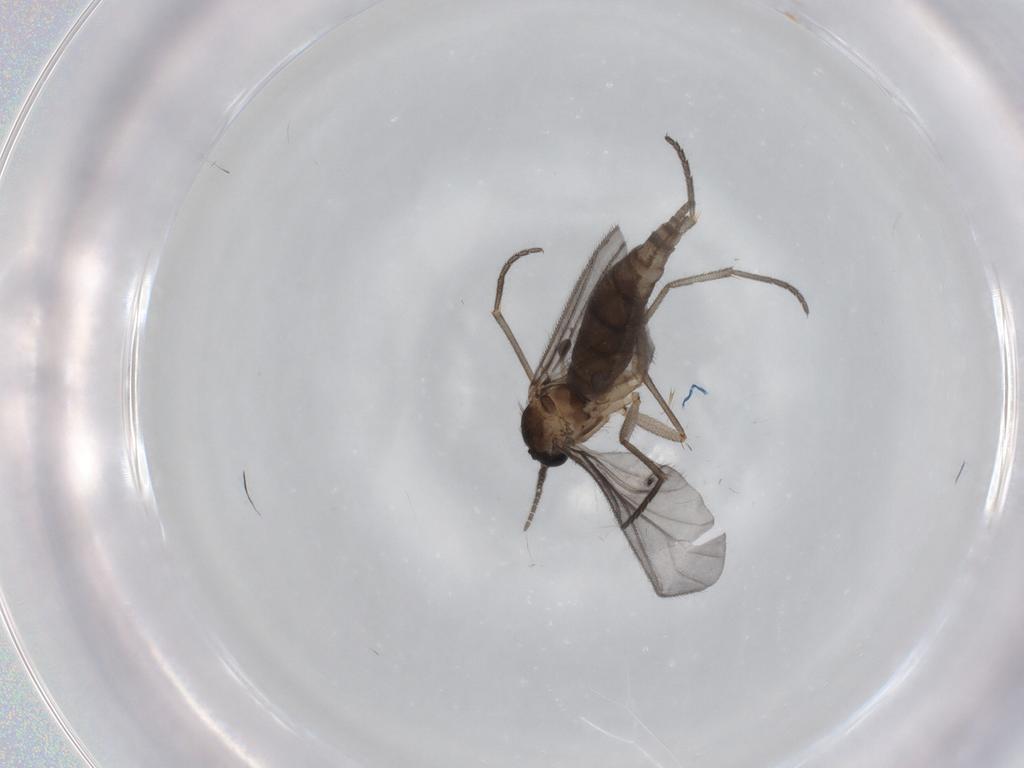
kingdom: Animalia
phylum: Arthropoda
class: Insecta
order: Diptera
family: Sciaridae
